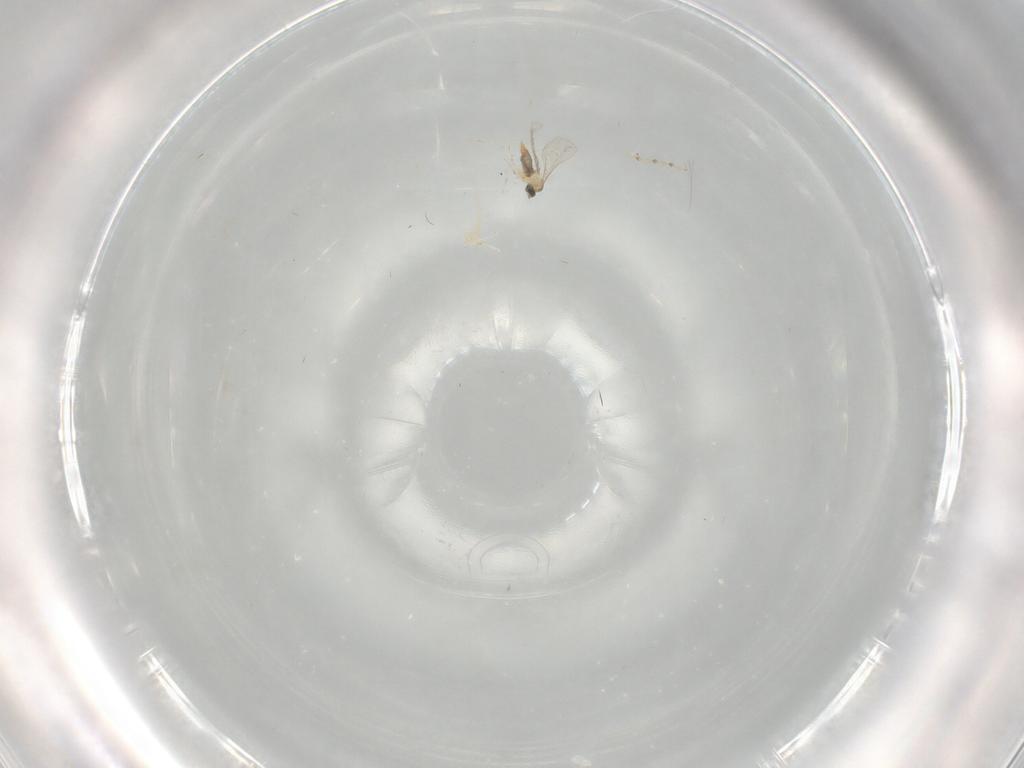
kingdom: Animalia
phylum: Arthropoda
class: Insecta
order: Diptera
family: Cecidomyiidae
